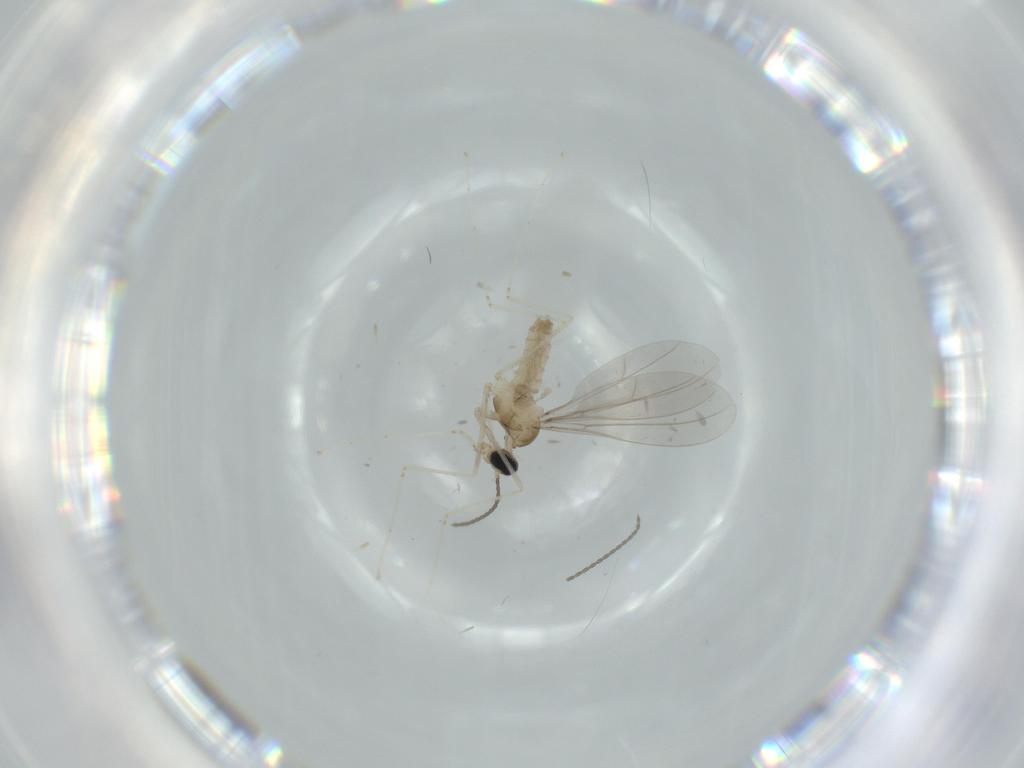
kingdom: Animalia
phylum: Arthropoda
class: Insecta
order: Diptera
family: Cecidomyiidae
